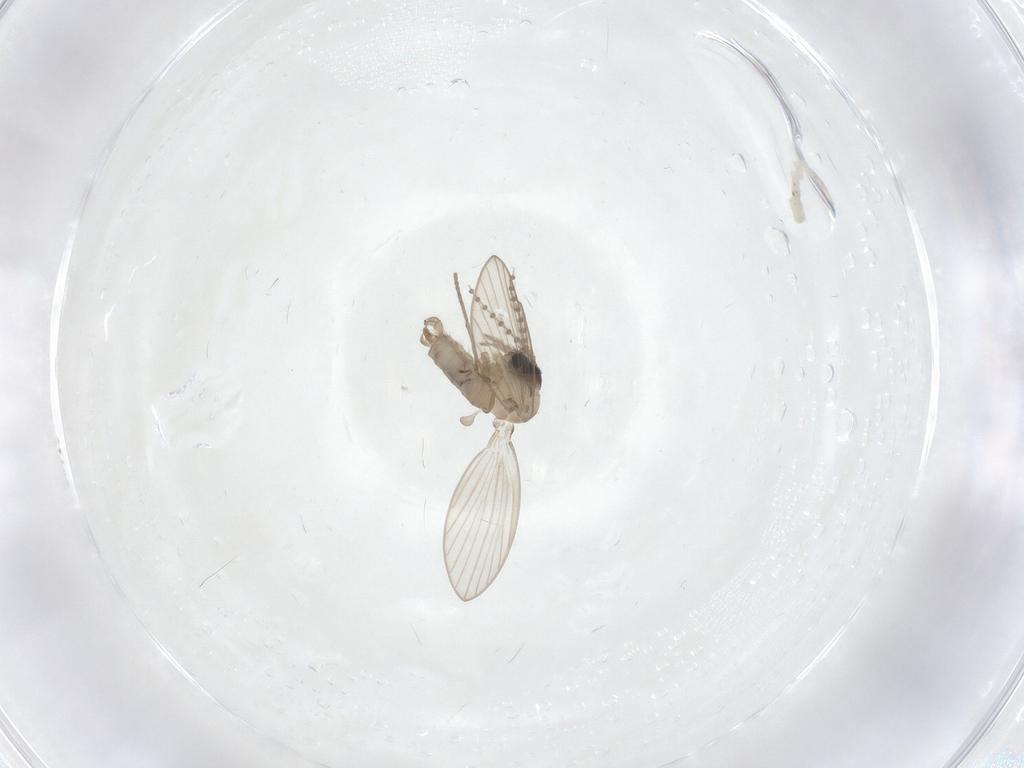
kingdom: Animalia
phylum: Arthropoda
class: Insecta
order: Diptera
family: Psychodidae
